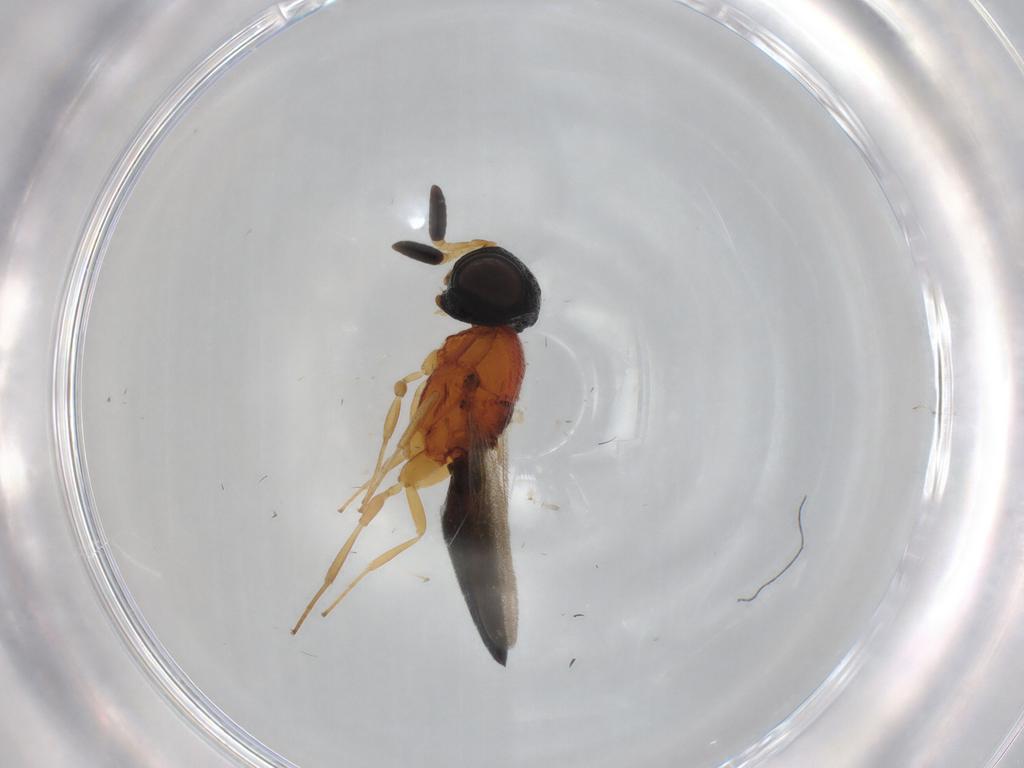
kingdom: Animalia
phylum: Arthropoda
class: Insecta
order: Hymenoptera
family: Scelionidae
